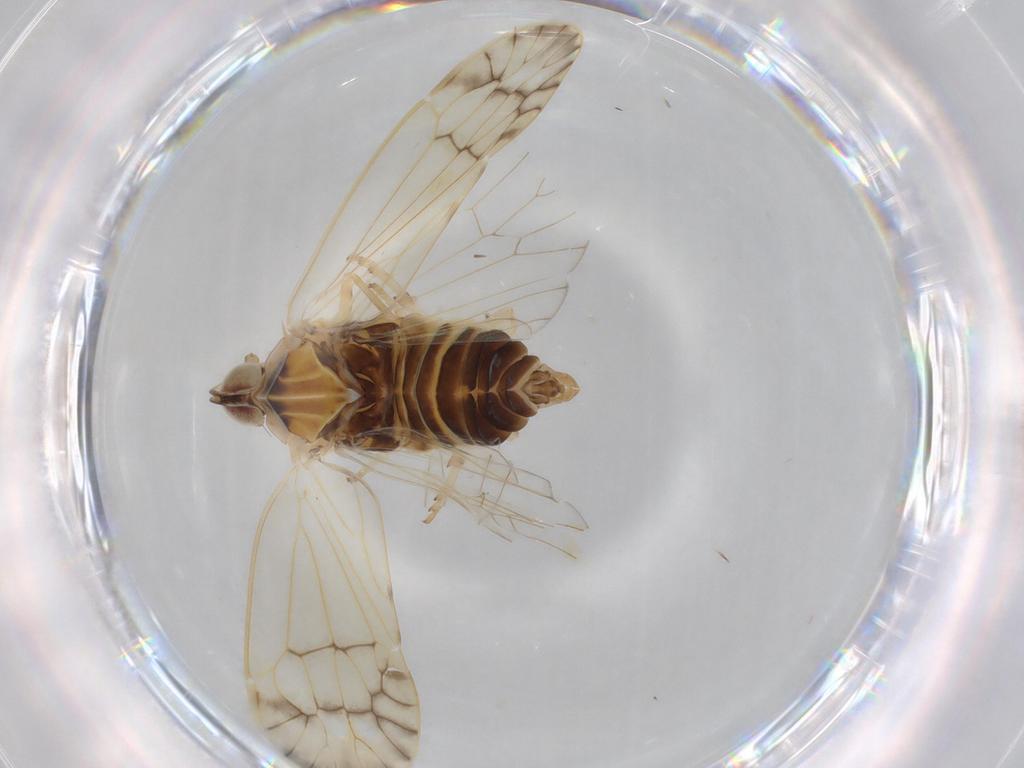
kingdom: Animalia
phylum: Arthropoda
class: Insecta
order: Hemiptera
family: Kinnaridae
